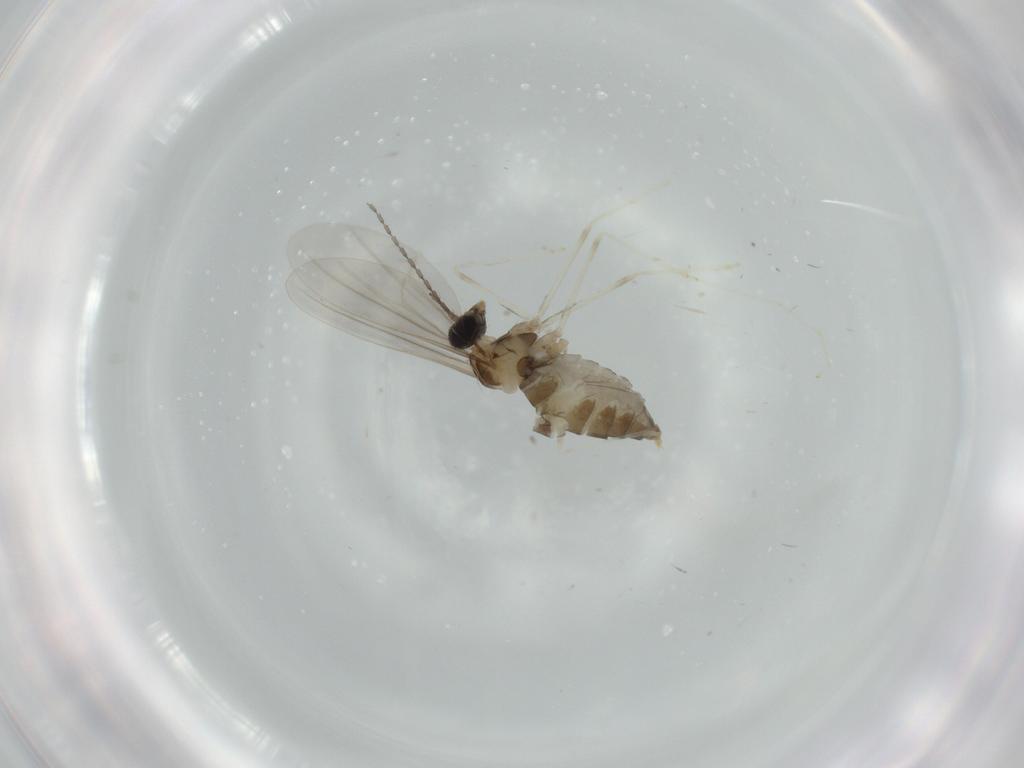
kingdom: Animalia
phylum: Arthropoda
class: Insecta
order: Diptera
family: Cecidomyiidae
